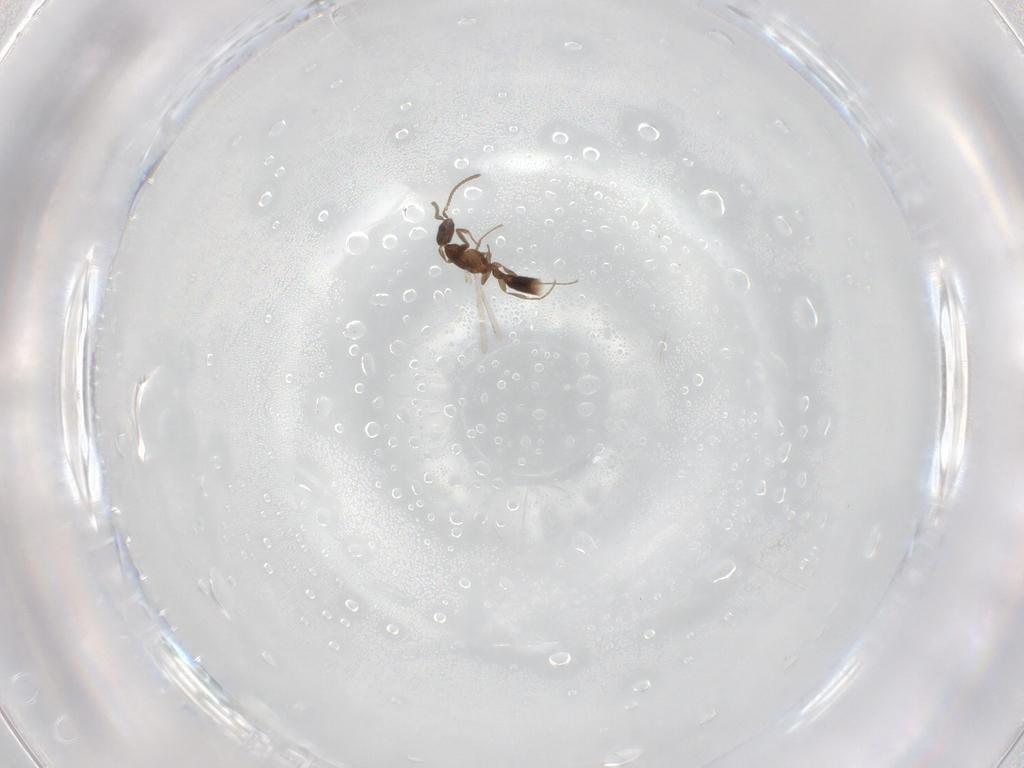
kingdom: Animalia
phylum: Arthropoda
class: Insecta
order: Hymenoptera
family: Formicidae
